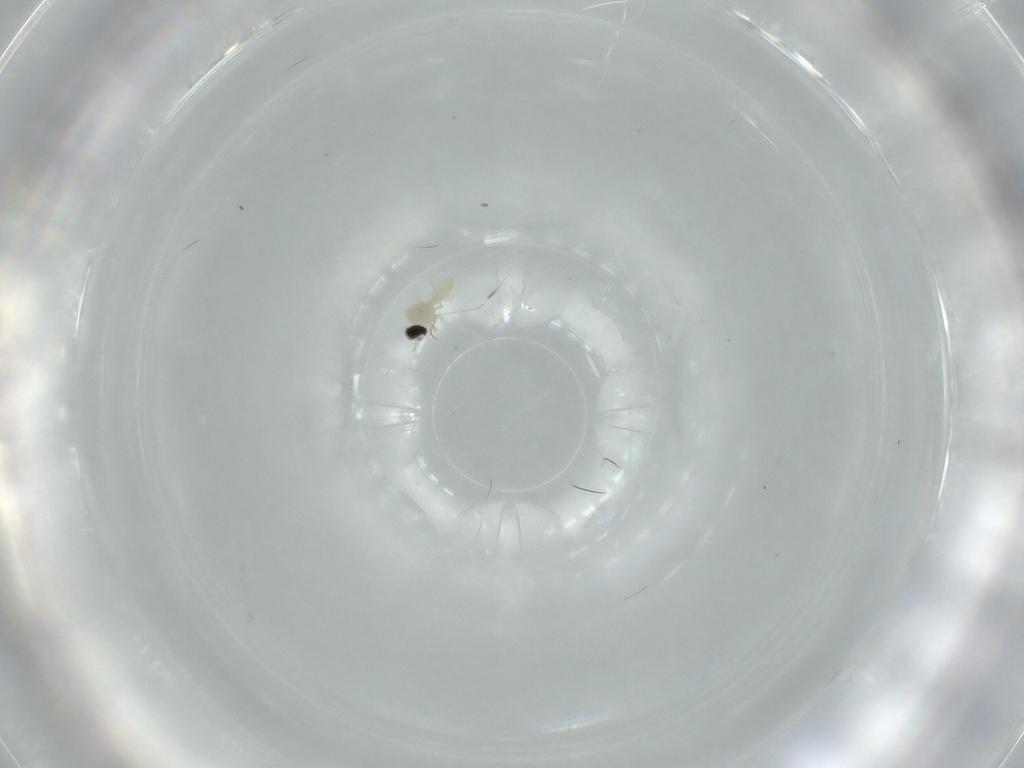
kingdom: Animalia
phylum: Arthropoda
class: Insecta
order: Diptera
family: Cecidomyiidae
